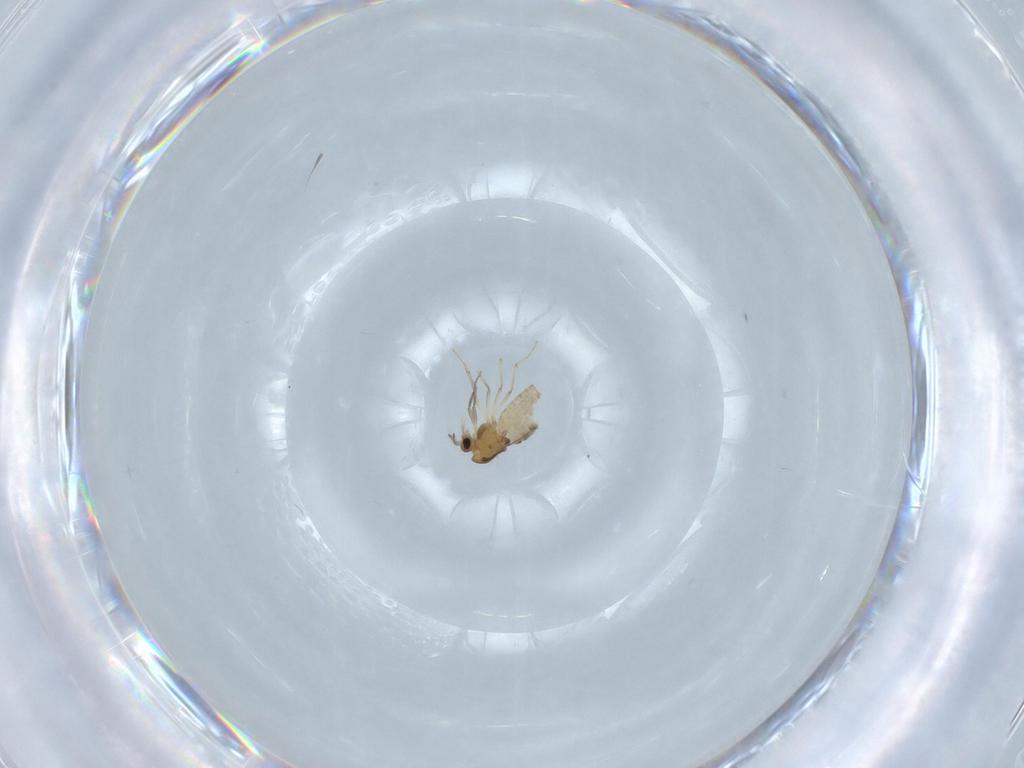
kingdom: Animalia
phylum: Arthropoda
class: Insecta
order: Diptera
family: Chironomidae
